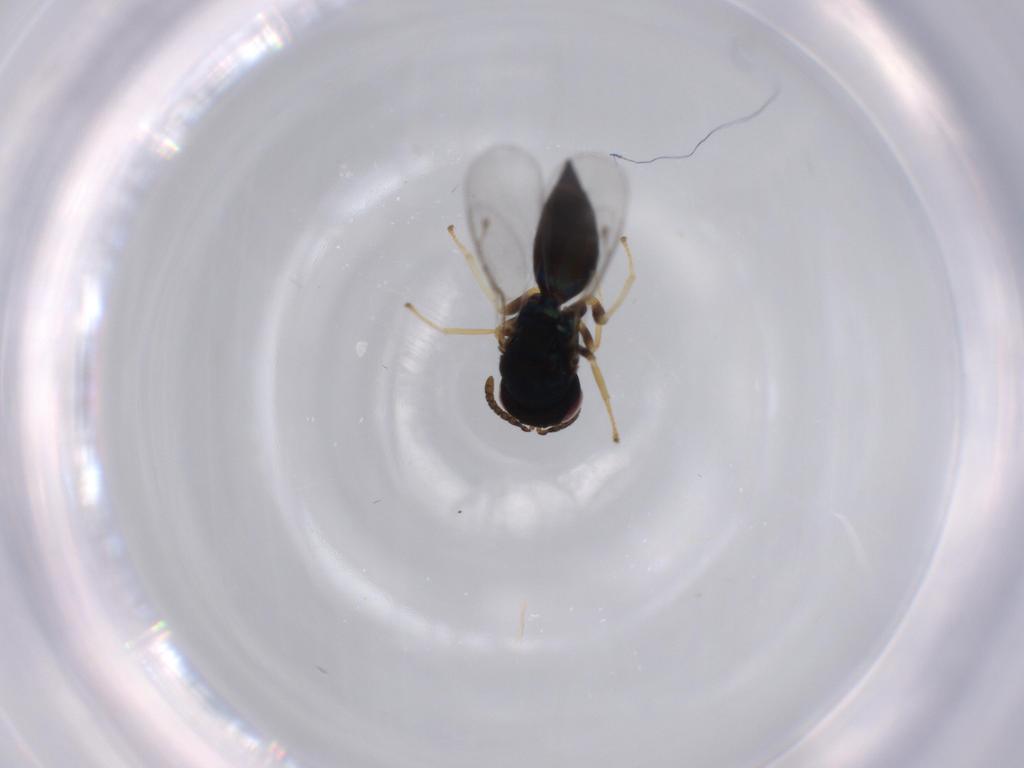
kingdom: Animalia
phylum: Arthropoda
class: Insecta
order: Hymenoptera
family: Pteromalidae
